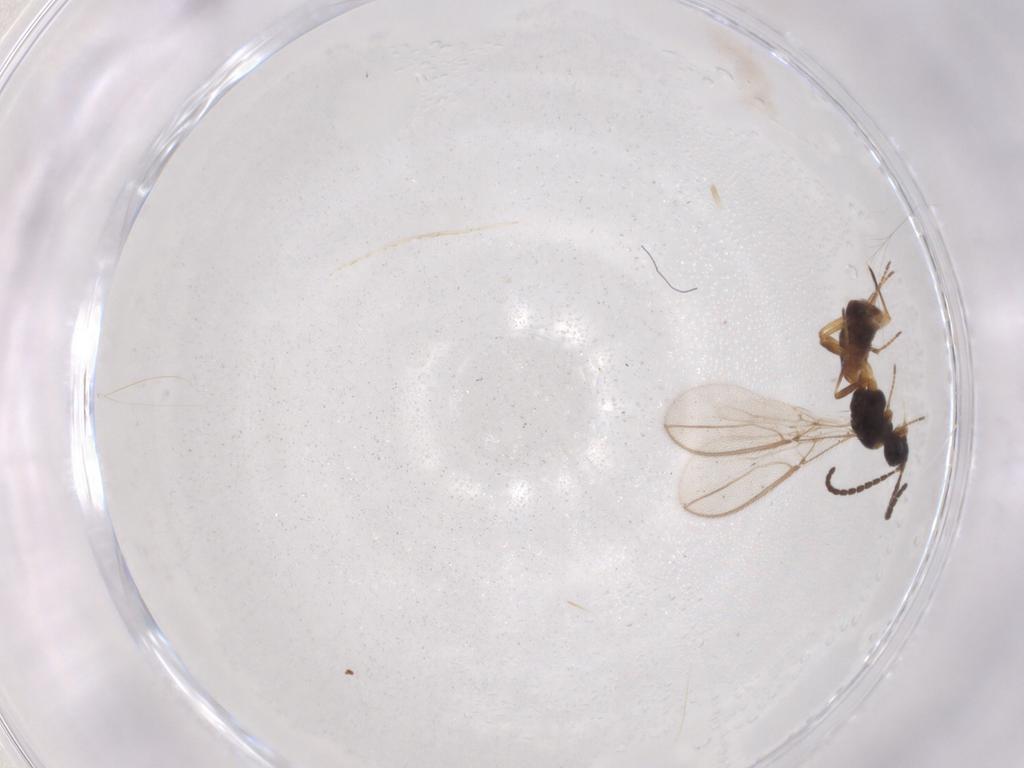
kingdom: Animalia
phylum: Arthropoda
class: Insecta
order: Hymenoptera
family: Braconidae
